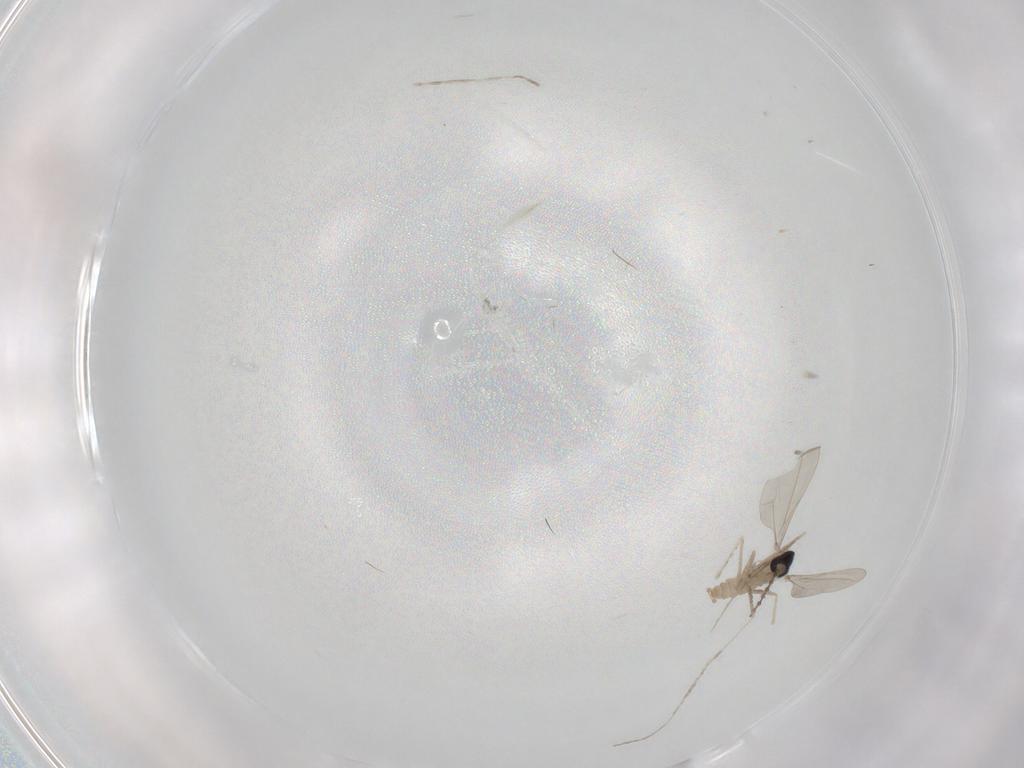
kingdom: Animalia
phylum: Arthropoda
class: Insecta
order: Diptera
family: Cecidomyiidae
